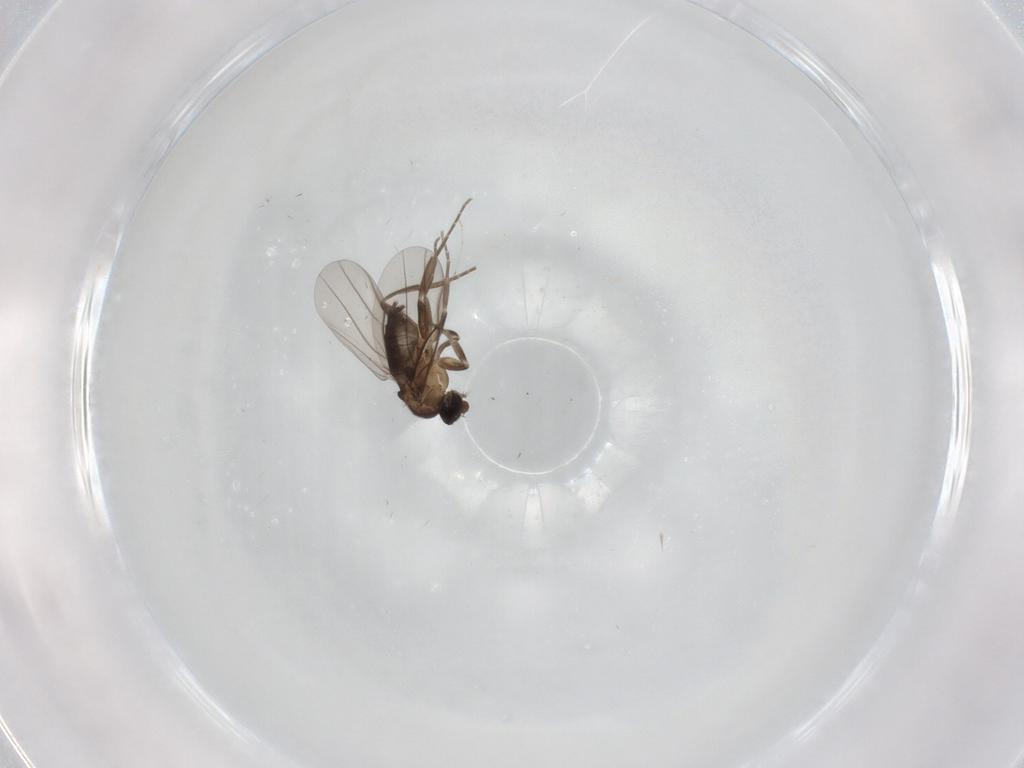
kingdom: Animalia
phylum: Arthropoda
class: Insecta
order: Diptera
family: Phoridae
